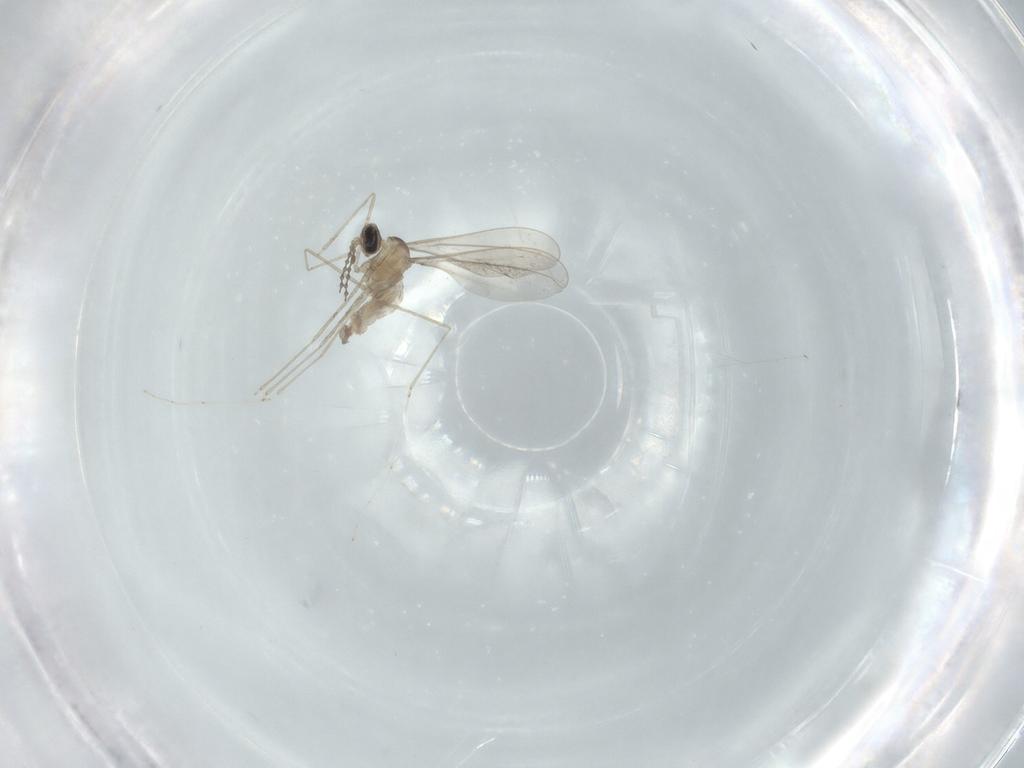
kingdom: Animalia
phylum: Arthropoda
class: Insecta
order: Diptera
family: Cecidomyiidae
